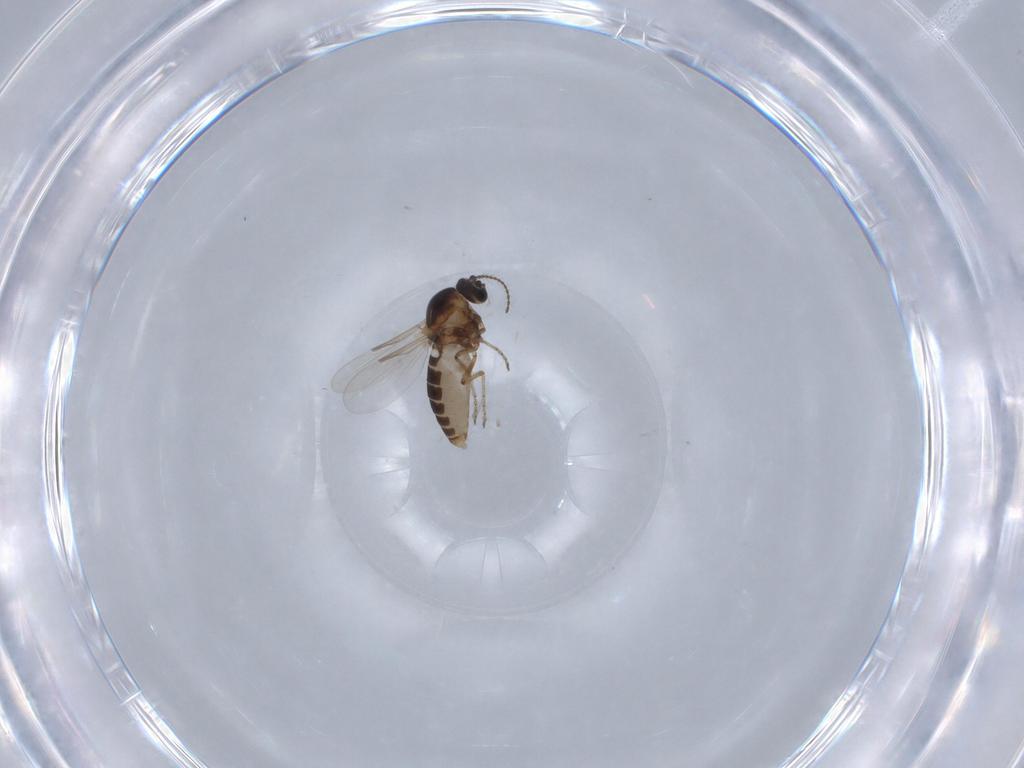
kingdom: Animalia
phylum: Arthropoda
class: Insecta
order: Diptera
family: Ceratopogonidae
